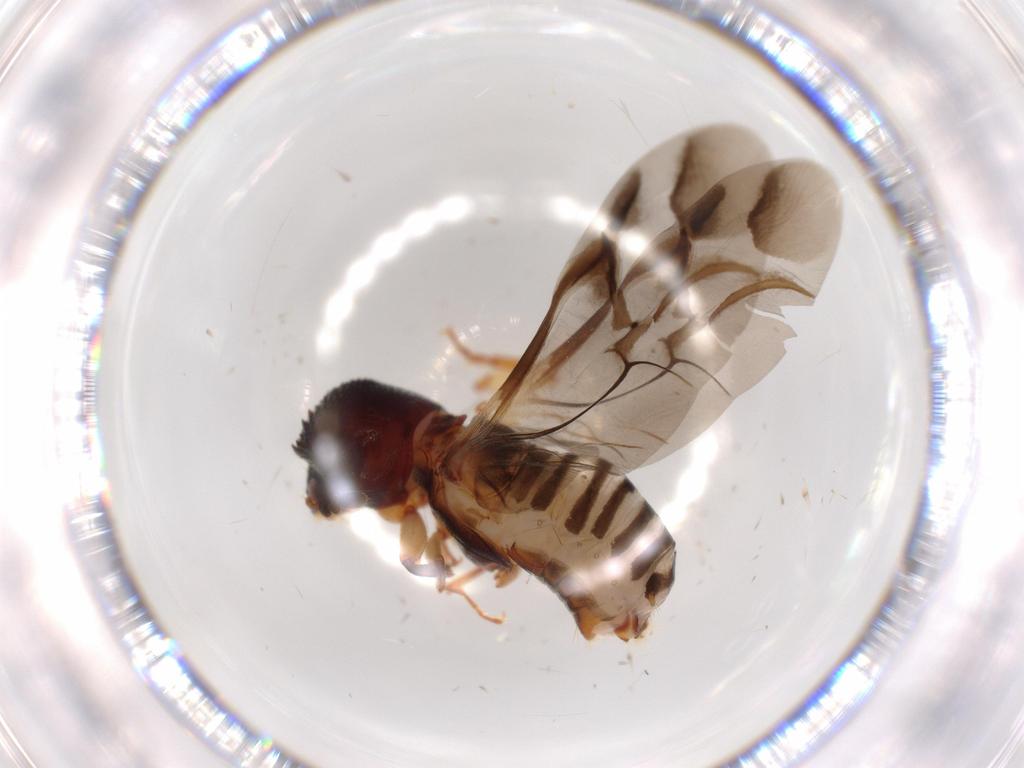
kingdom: Animalia
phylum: Arthropoda
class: Insecta
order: Coleoptera
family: Bostrichidae
